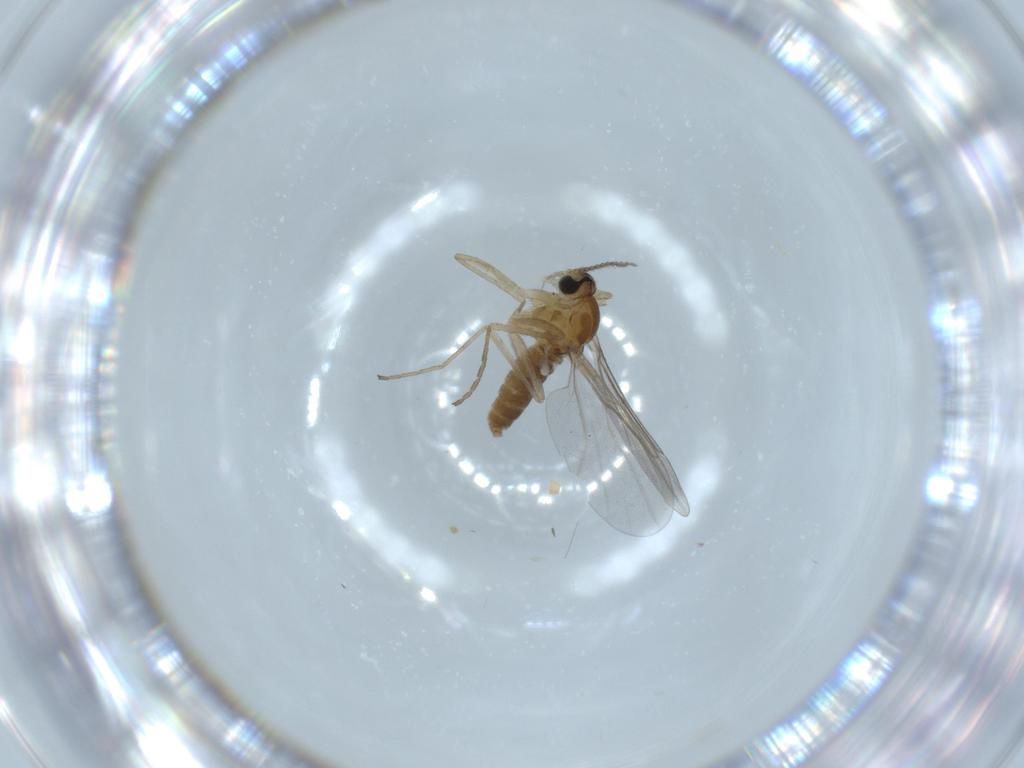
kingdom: Animalia
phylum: Arthropoda
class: Insecta
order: Diptera
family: Cecidomyiidae
